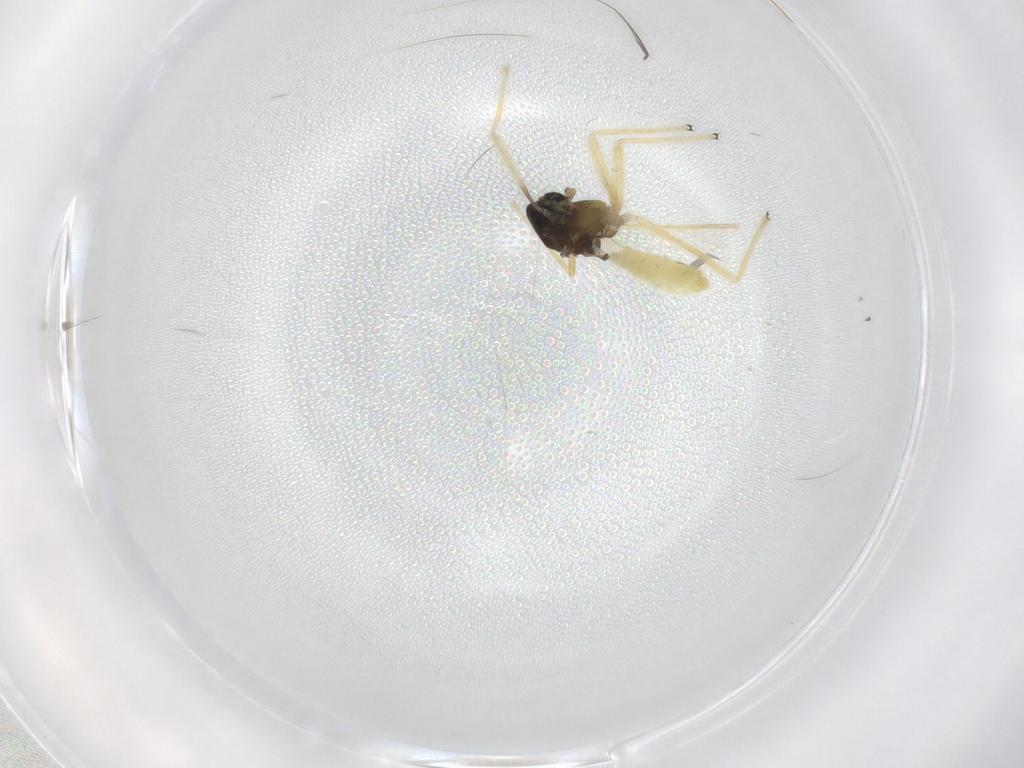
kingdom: Animalia
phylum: Arthropoda
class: Insecta
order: Diptera
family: Chironomidae
